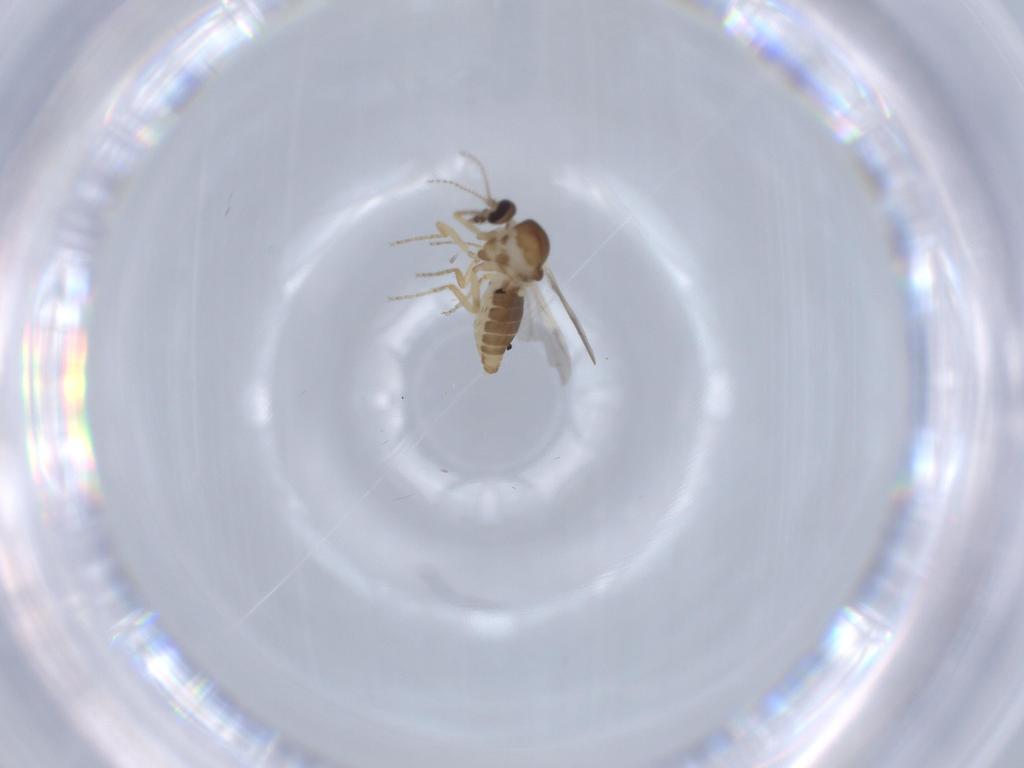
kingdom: Animalia
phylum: Arthropoda
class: Insecta
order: Diptera
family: Ceratopogonidae
